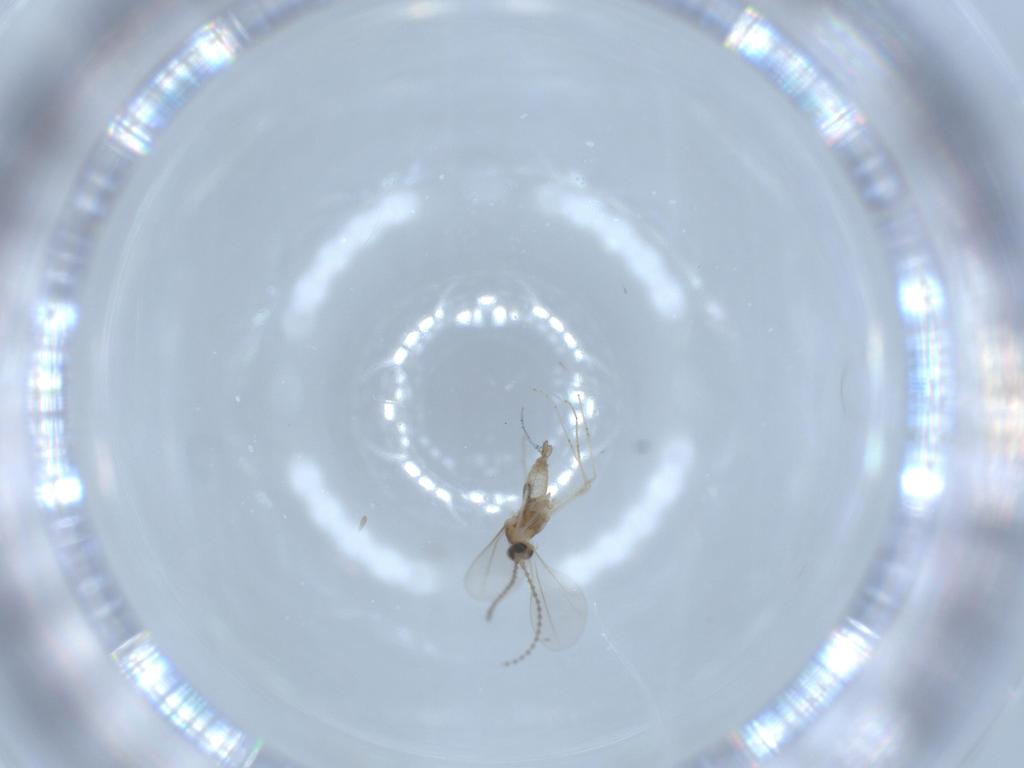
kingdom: Animalia
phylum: Arthropoda
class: Insecta
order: Diptera
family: Cecidomyiidae
